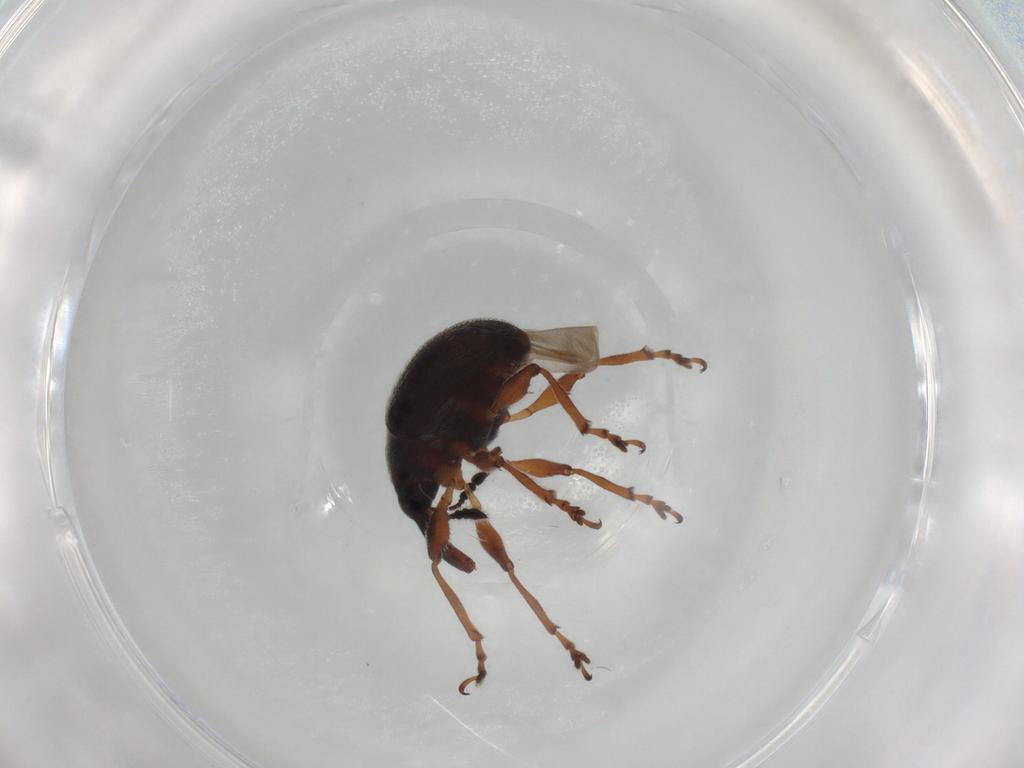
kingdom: Animalia
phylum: Arthropoda
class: Insecta
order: Coleoptera
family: Brentidae
